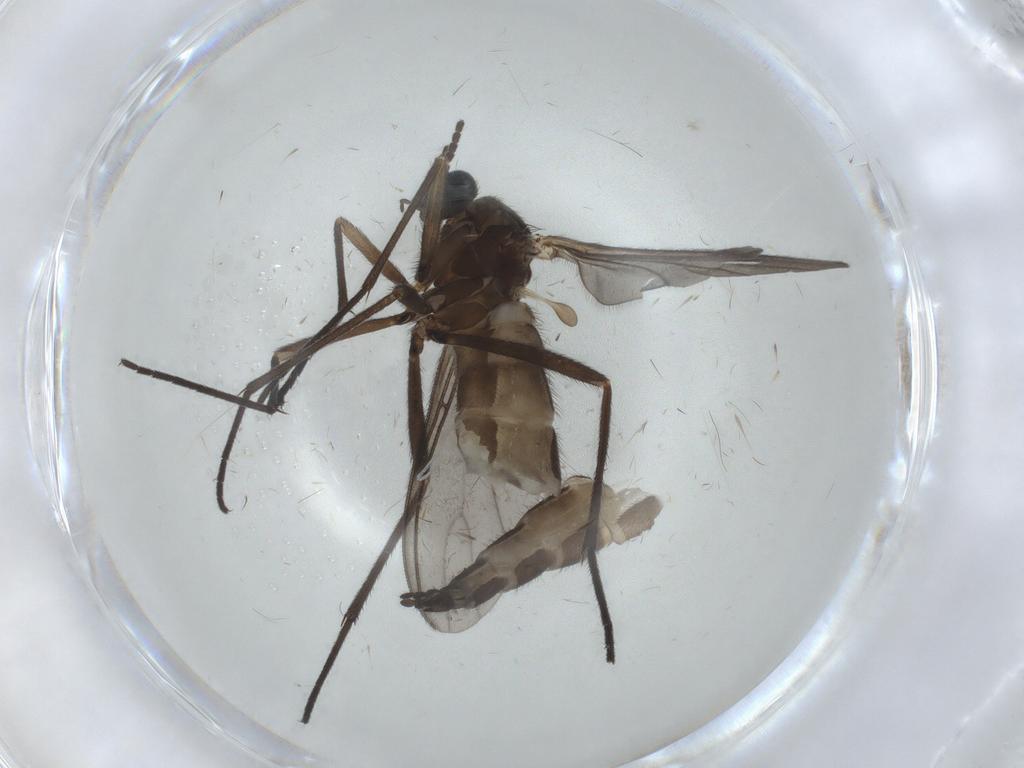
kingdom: Animalia
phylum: Arthropoda
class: Insecta
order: Diptera
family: Sciaridae
